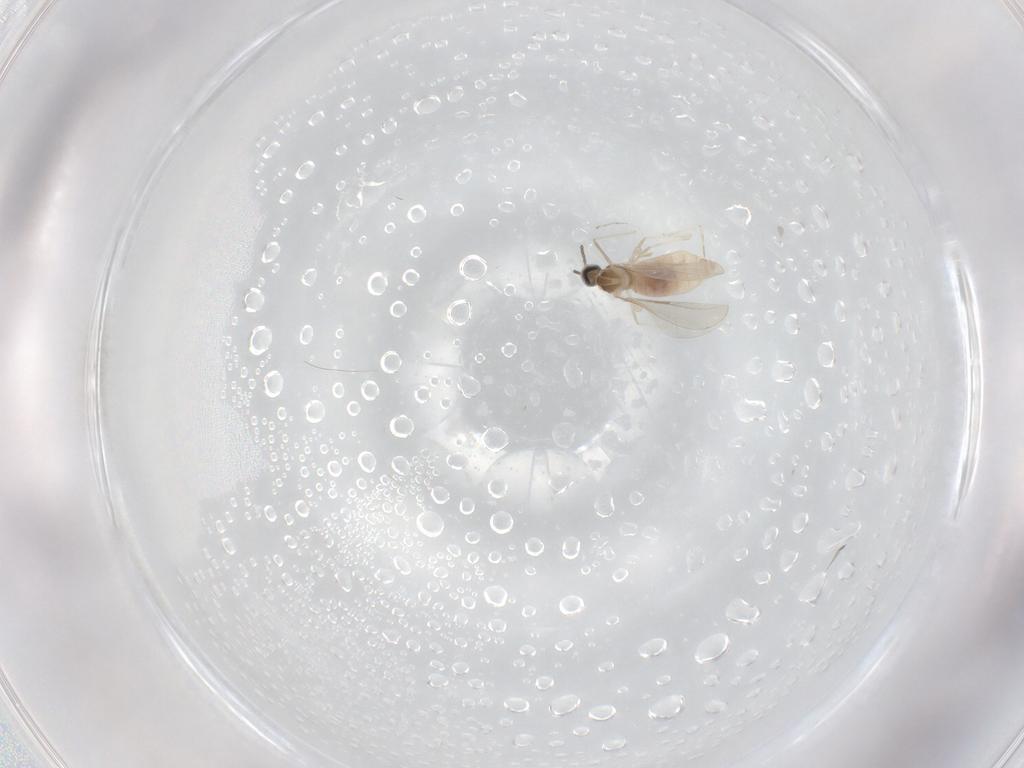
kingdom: Animalia
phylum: Arthropoda
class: Insecta
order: Diptera
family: Cecidomyiidae
